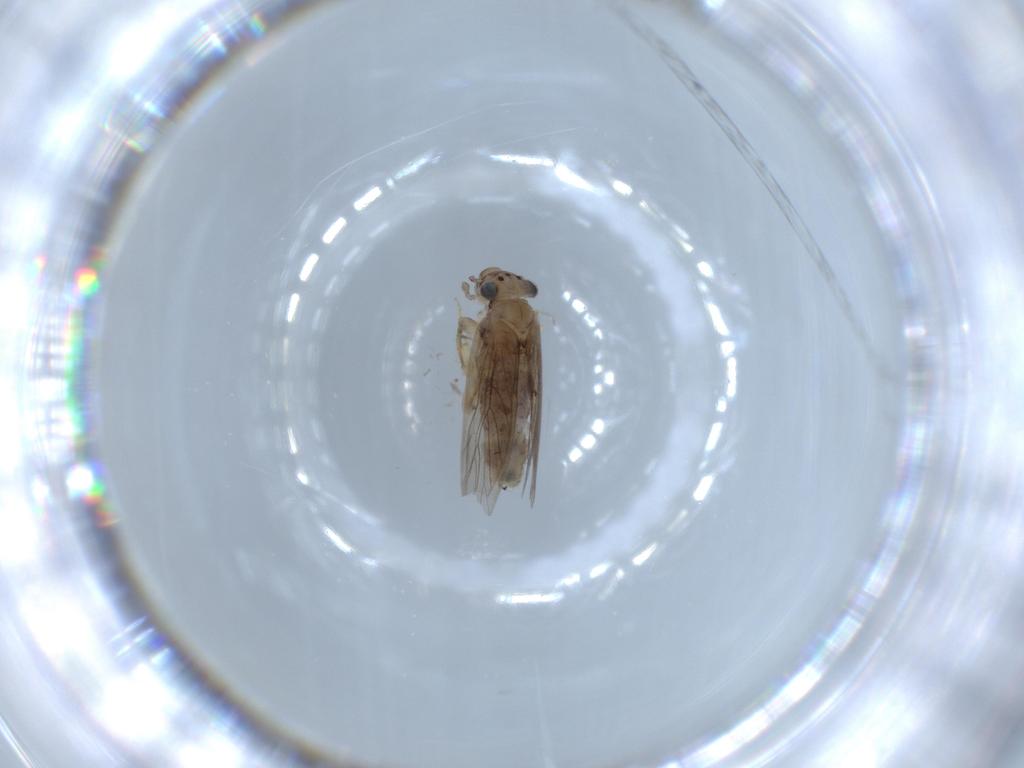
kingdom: Animalia
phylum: Arthropoda
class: Insecta
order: Psocodea
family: Lepidopsocidae
